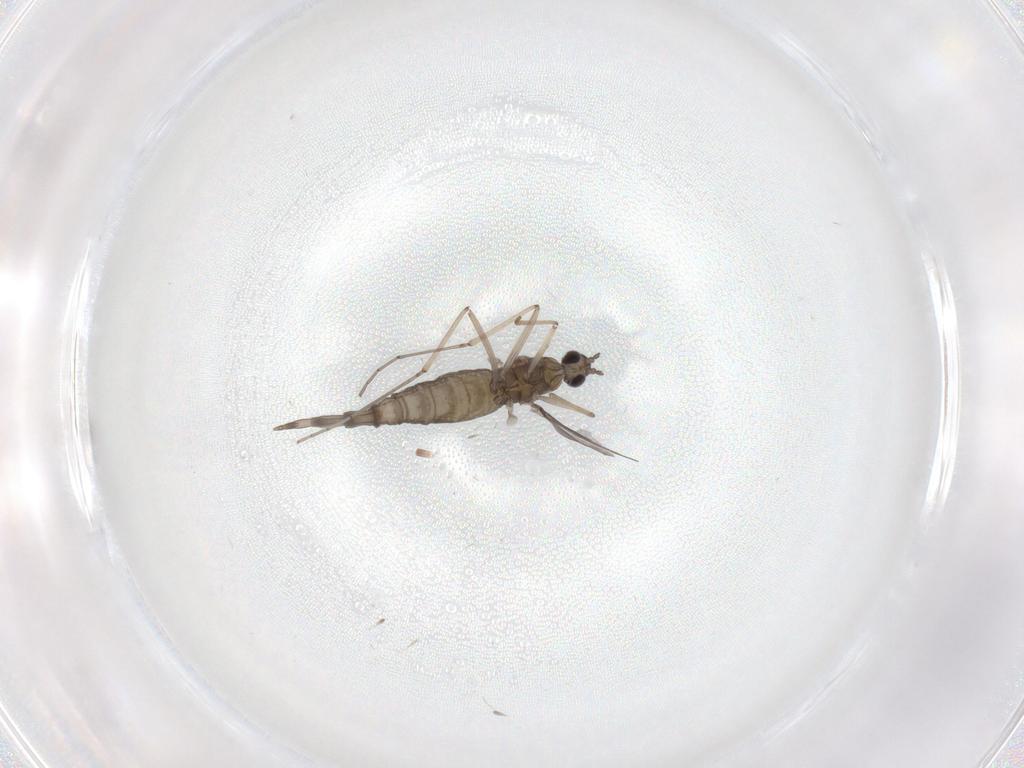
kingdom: Animalia
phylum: Arthropoda
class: Insecta
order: Diptera
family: Cecidomyiidae
